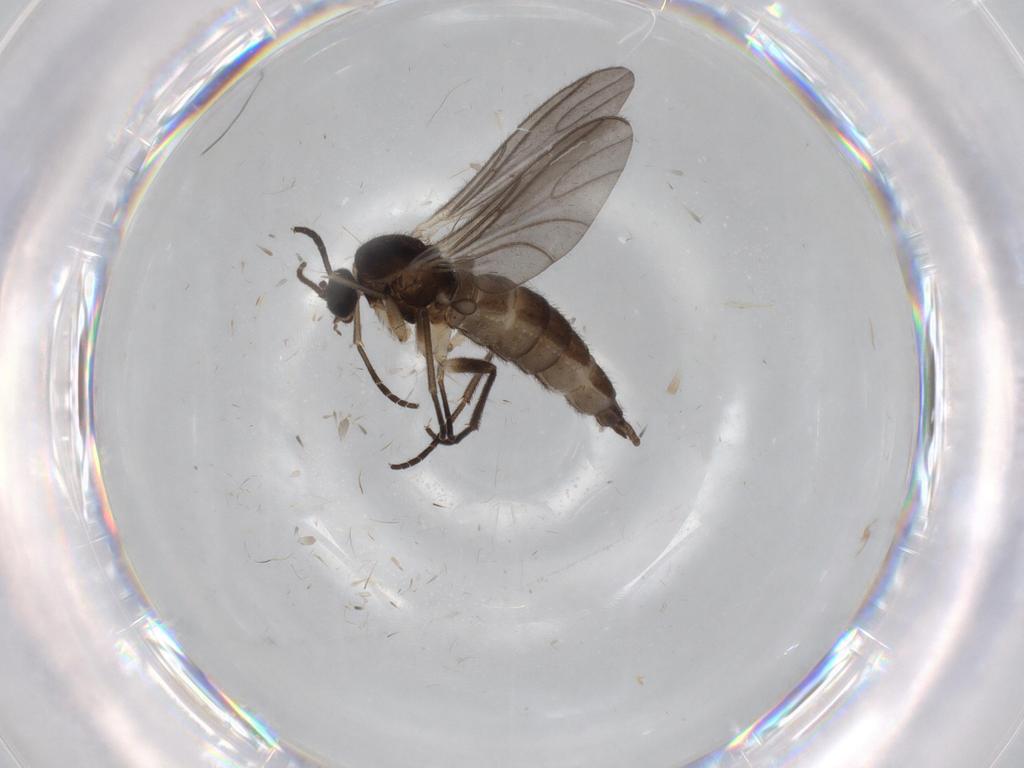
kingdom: Animalia
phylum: Arthropoda
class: Insecta
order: Diptera
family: Sciaridae
